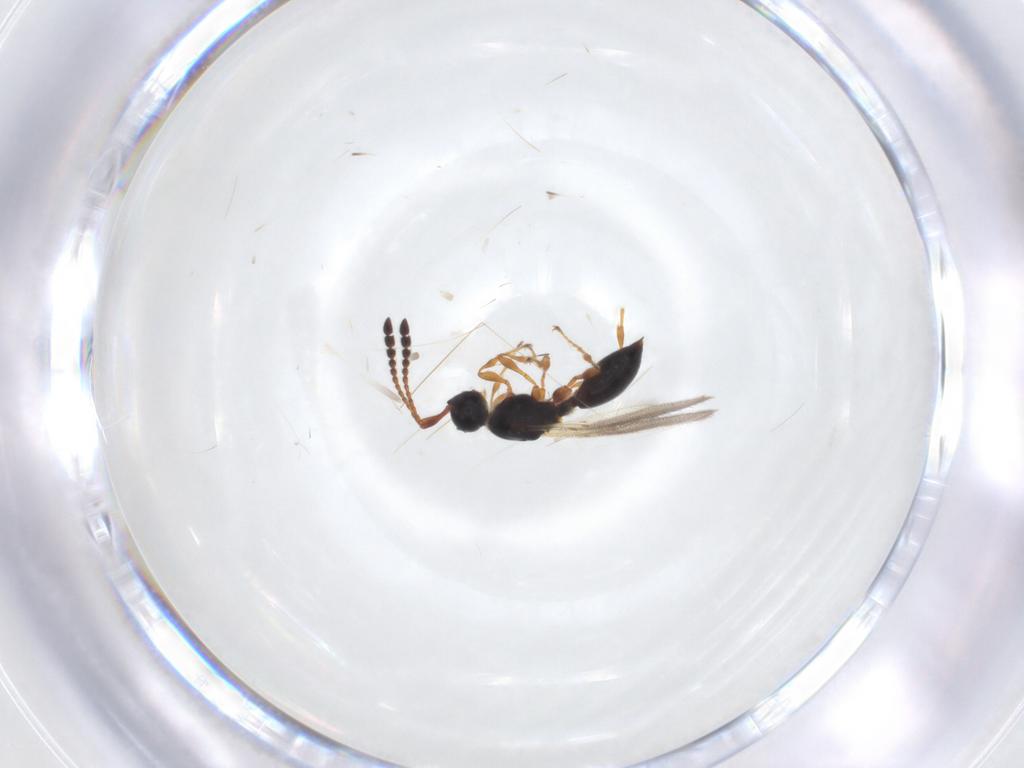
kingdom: Animalia
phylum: Arthropoda
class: Insecta
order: Hymenoptera
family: Diapriidae
